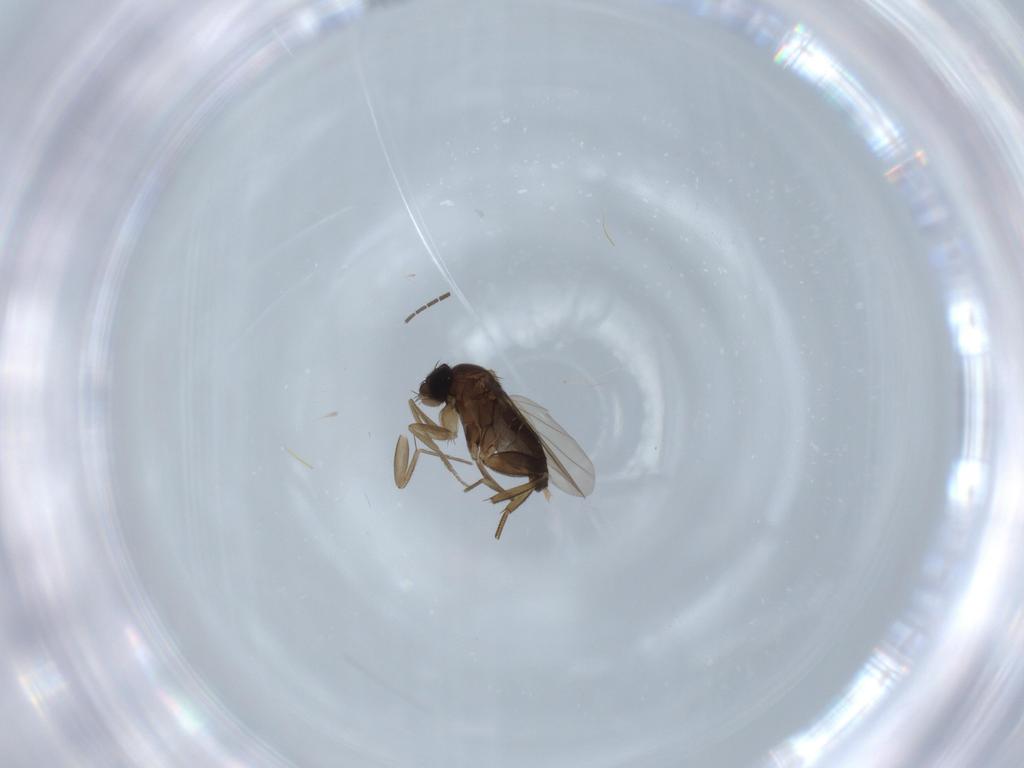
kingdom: Animalia
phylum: Arthropoda
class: Insecta
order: Diptera
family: Phoridae
